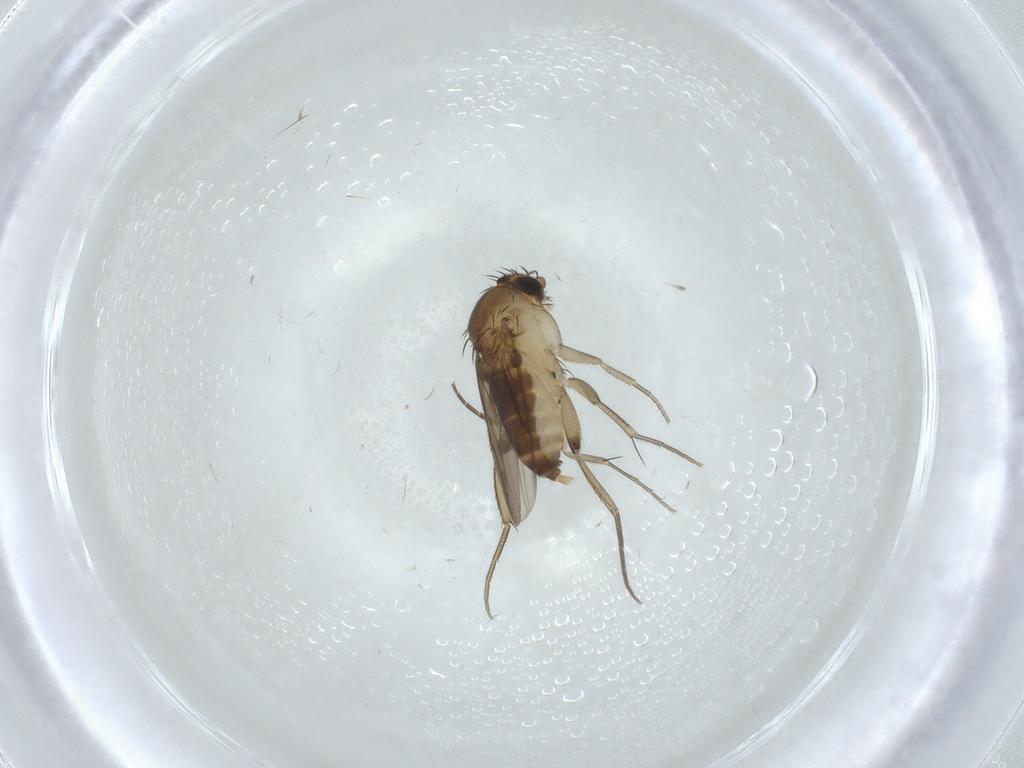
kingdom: Animalia
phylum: Arthropoda
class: Insecta
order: Diptera
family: Phoridae
